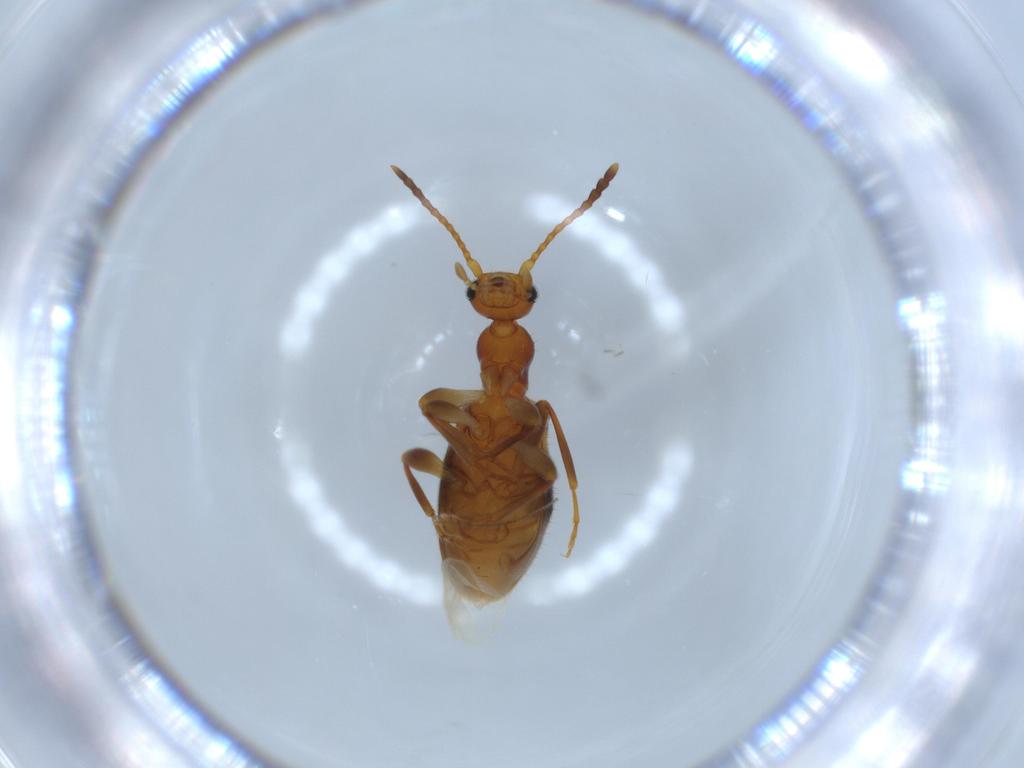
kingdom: Animalia
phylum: Arthropoda
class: Insecta
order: Coleoptera
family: Anthicidae
